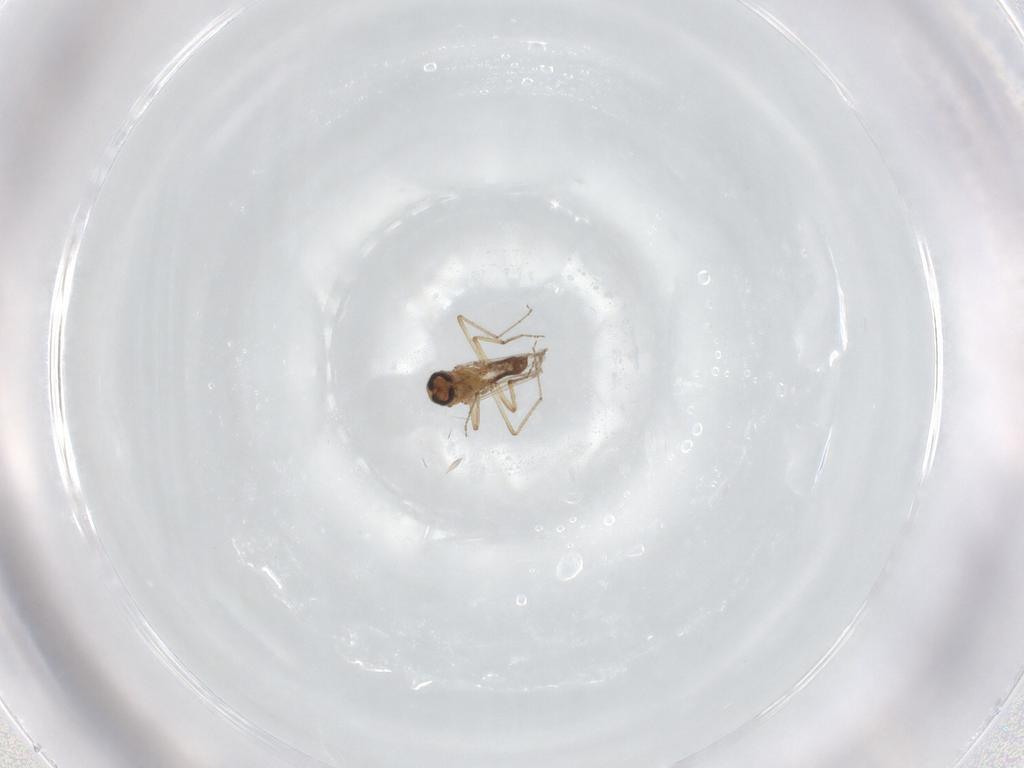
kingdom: Animalia
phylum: Arthropoda
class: Insecta
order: Diptera
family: Ceratopogonidae
